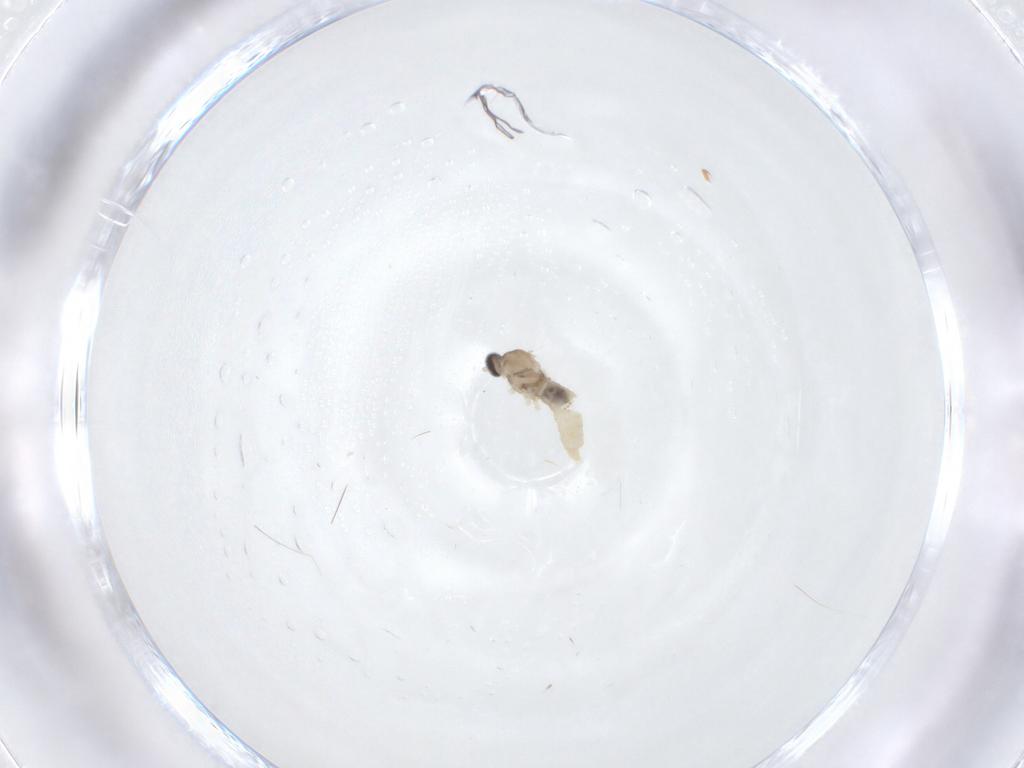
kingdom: Animalia
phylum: Arthropoda
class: Insecta
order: Diptera
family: Cecidomyiidae
